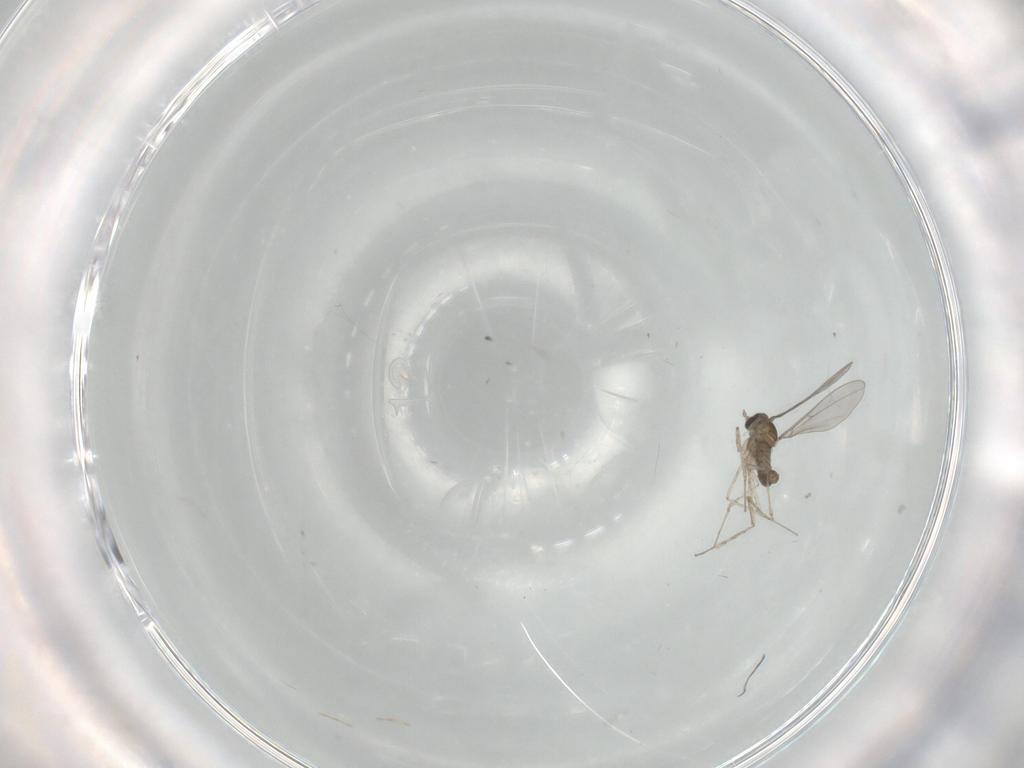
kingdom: Animalia
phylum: Arthropoda
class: Insecta
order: Diptera
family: Anthomyiidae
